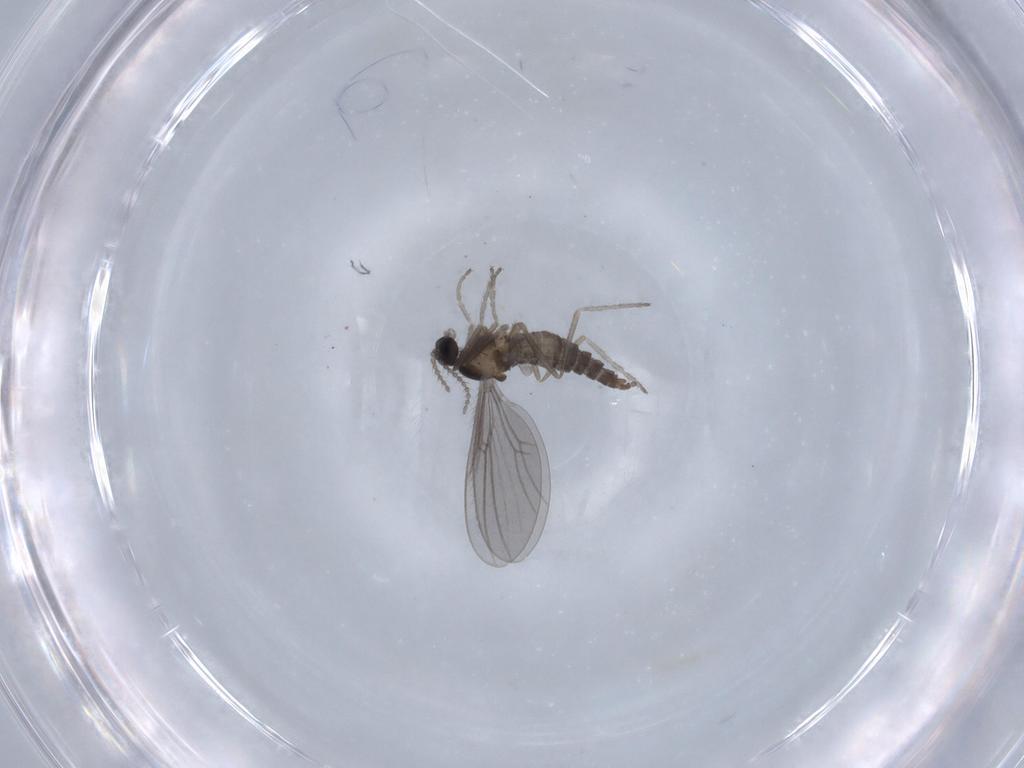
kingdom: Animalia
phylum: Arthropoda
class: Insecta
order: Diptera
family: Cecidomyiidae
